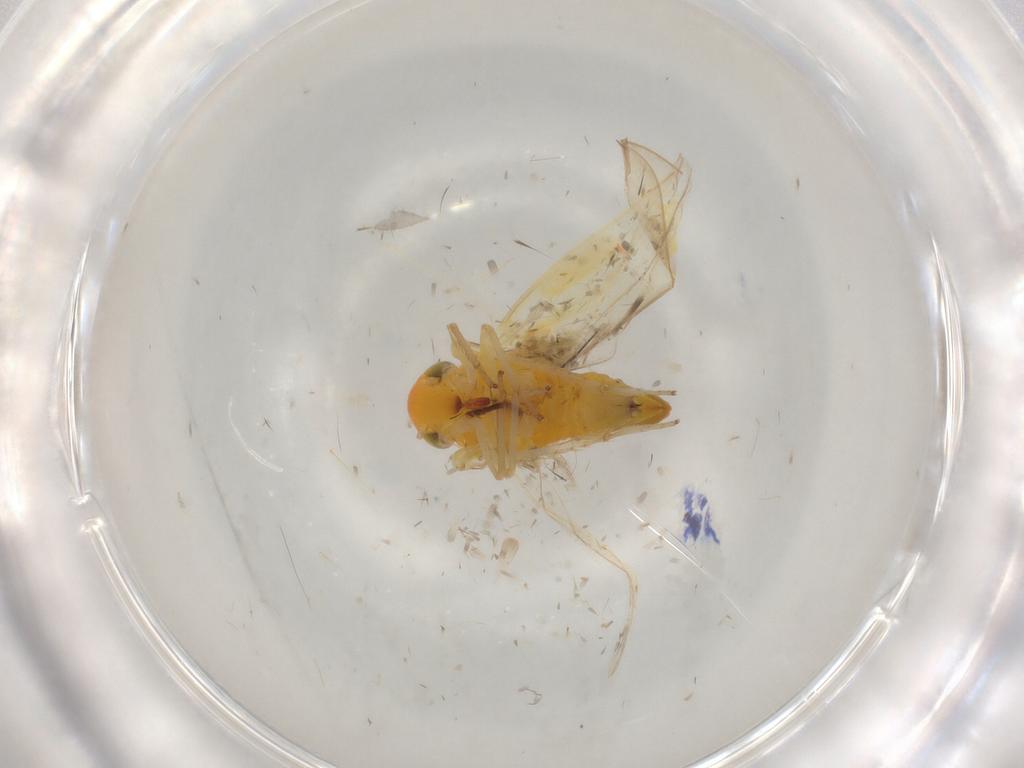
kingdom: Animalia
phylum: Arthropoda
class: Insecta
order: Hemiptera
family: Cicadellidae
